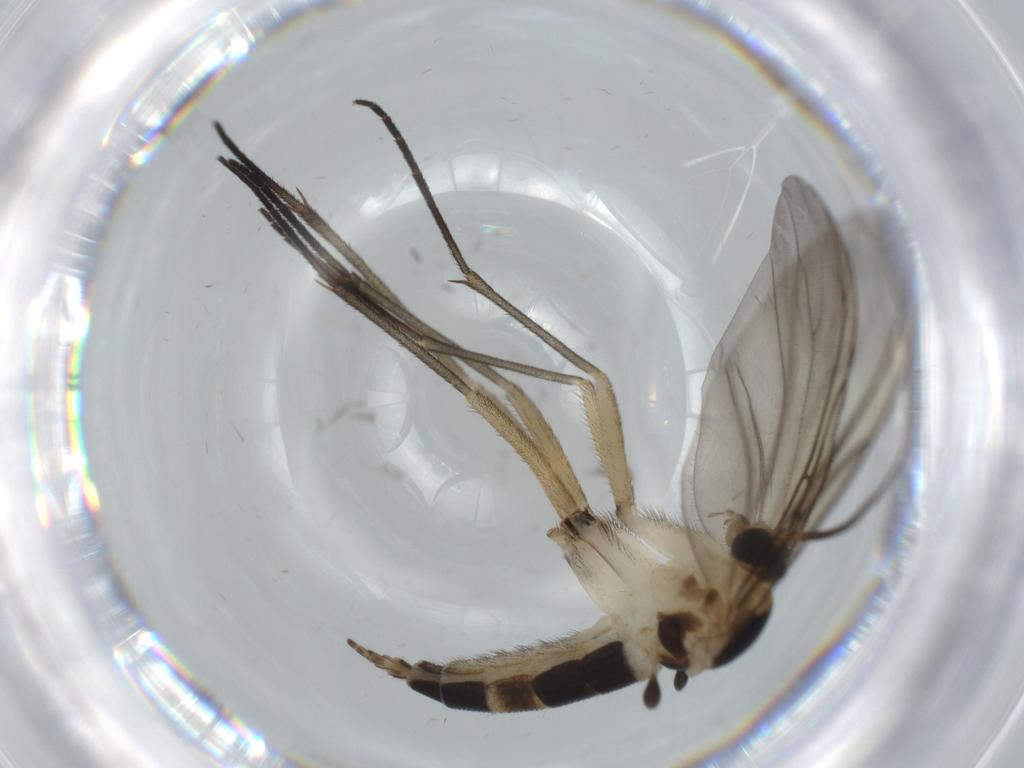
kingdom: Animalia
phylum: Arthropoda
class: Insecta
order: Diptera
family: Sciaridae
